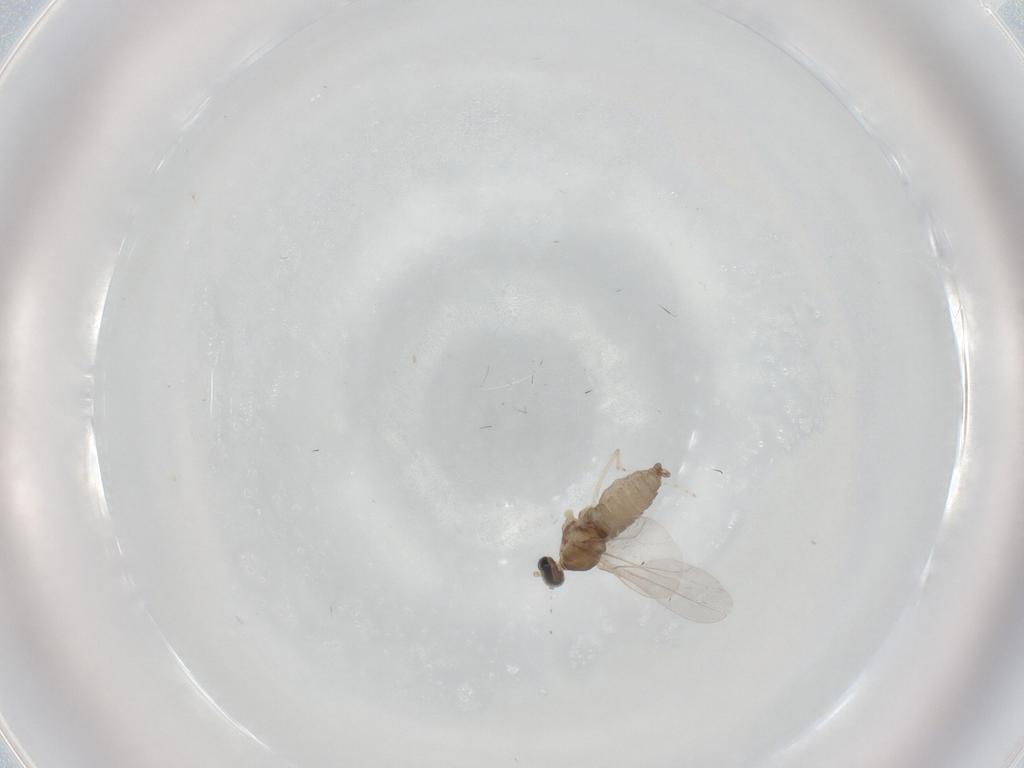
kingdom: Animalia
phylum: Arthropoda
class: Insecta
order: Diptera
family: Cecidomyiidae
